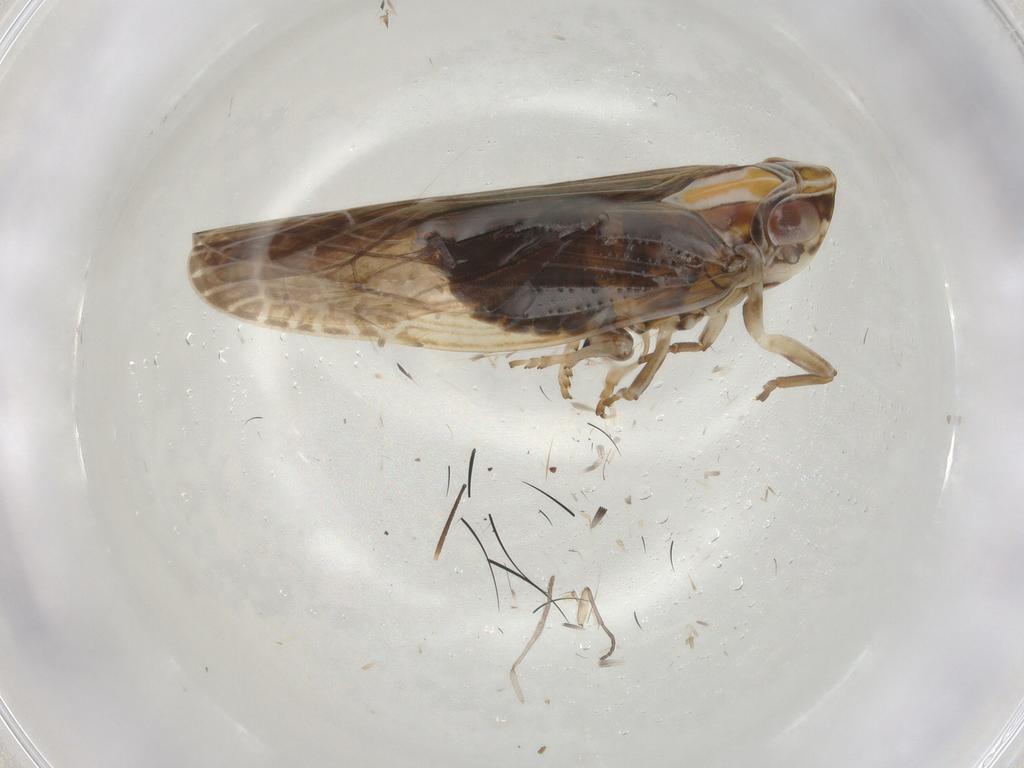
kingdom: Animalia
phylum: Arthropoda
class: Insecta
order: Hemiptera
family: Achilidae
